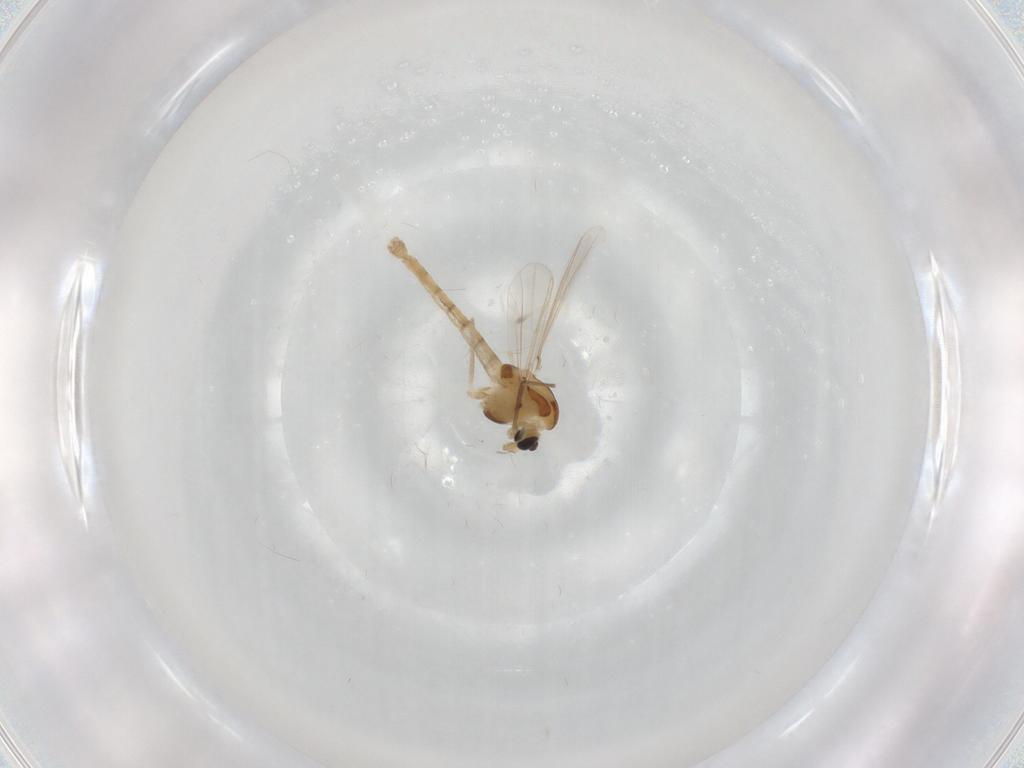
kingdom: Animalia
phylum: Arthropoda
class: Insecta
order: Diptera
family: Chironomidae
